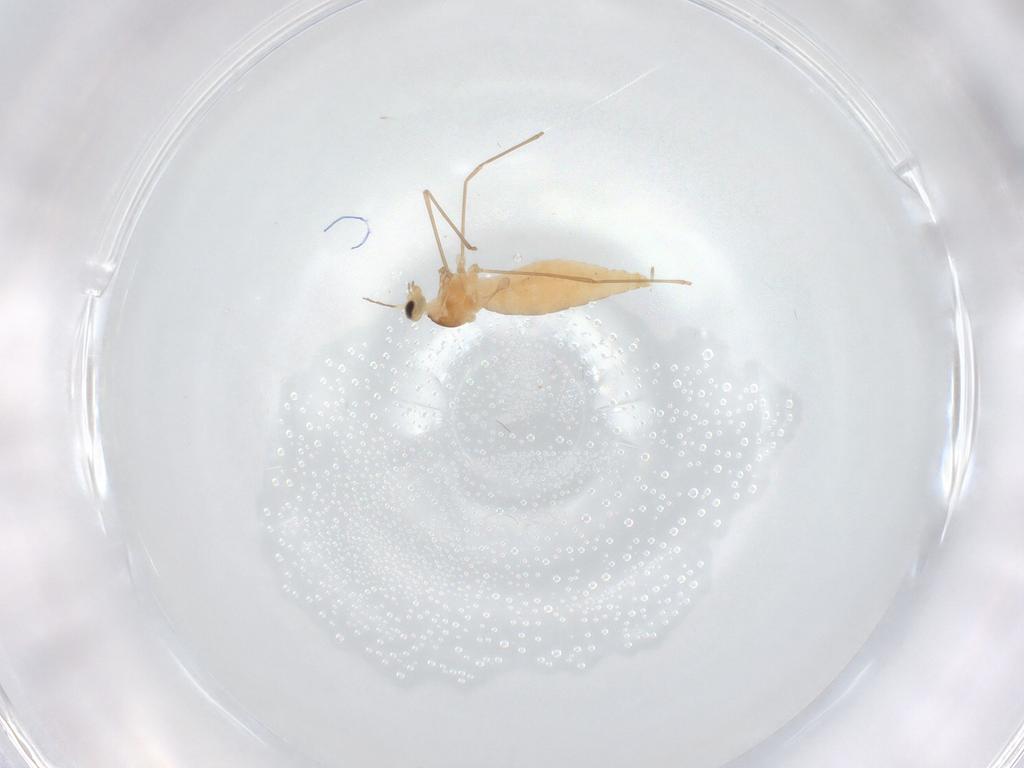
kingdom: Animalia
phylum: Arthropoda
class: Insecta
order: Diptera
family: Cecidomyiidae
